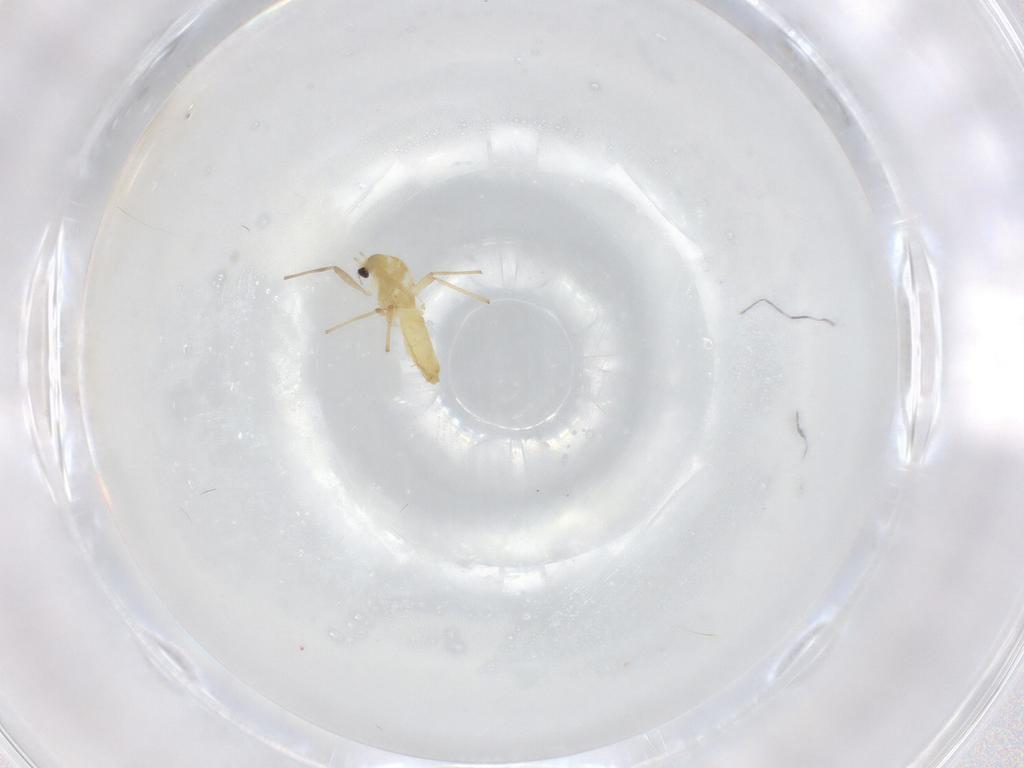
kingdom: Animalia
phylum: Arthropoda
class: Insecta
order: Diptera
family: Chironomidae
